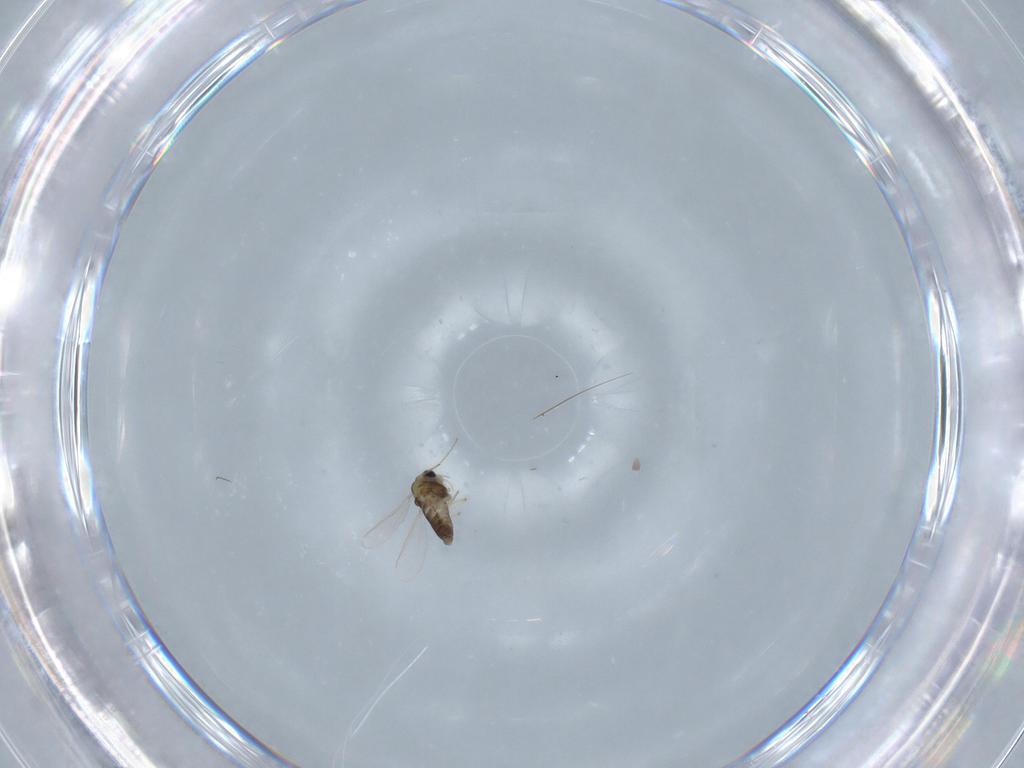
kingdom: Animalia
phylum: Arthropoda
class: Insecta
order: Diptera
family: Chironomidae
